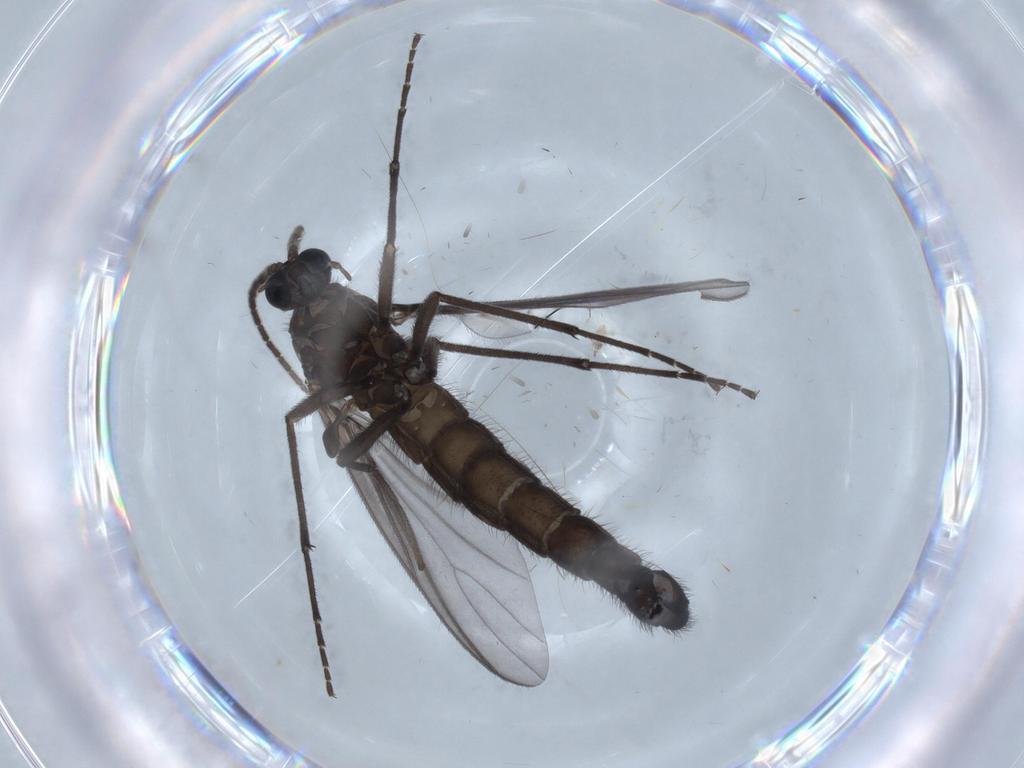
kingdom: Animalia
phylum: Arthropoda
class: Insecta
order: Diptera
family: Sciaridae
